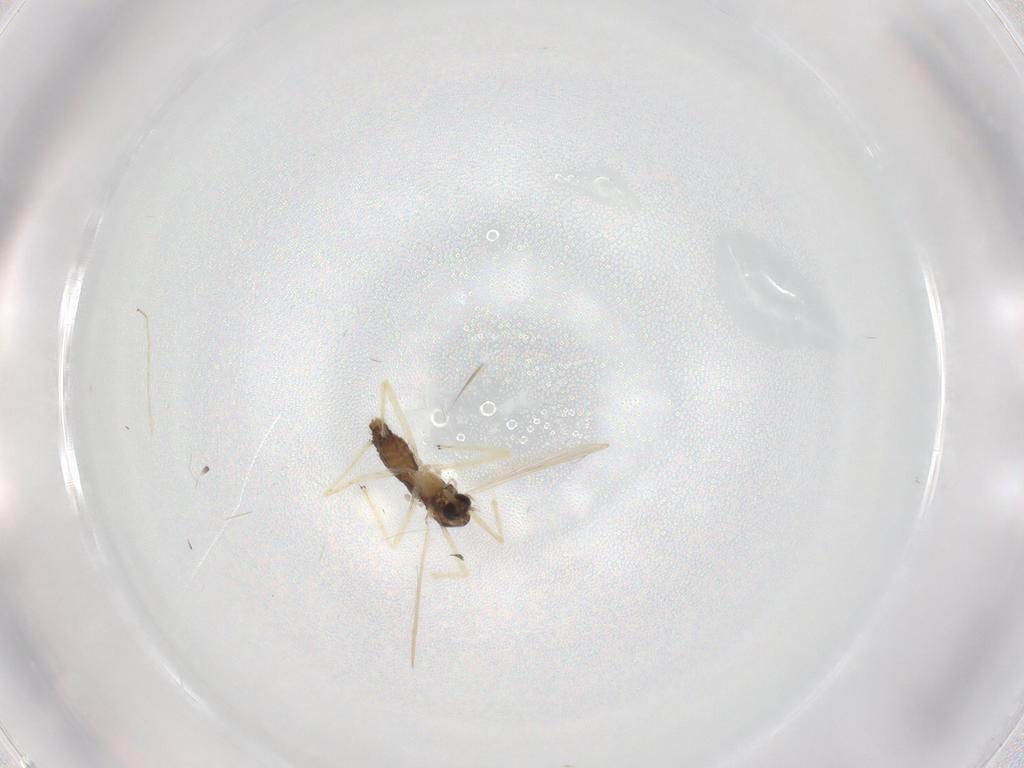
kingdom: Animalia
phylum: Arthropoda
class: Insecta
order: Diptera
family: Chironomidae
